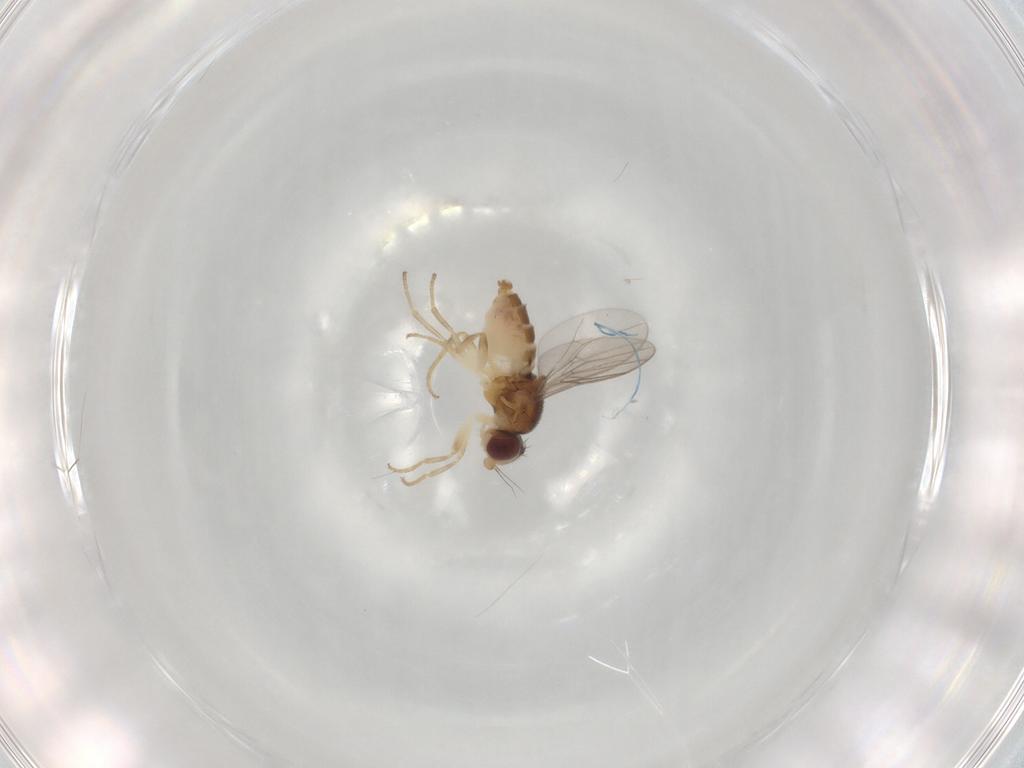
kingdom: Animalia
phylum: Arthropoda
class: Insecta
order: Diptera
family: Chloropidae
